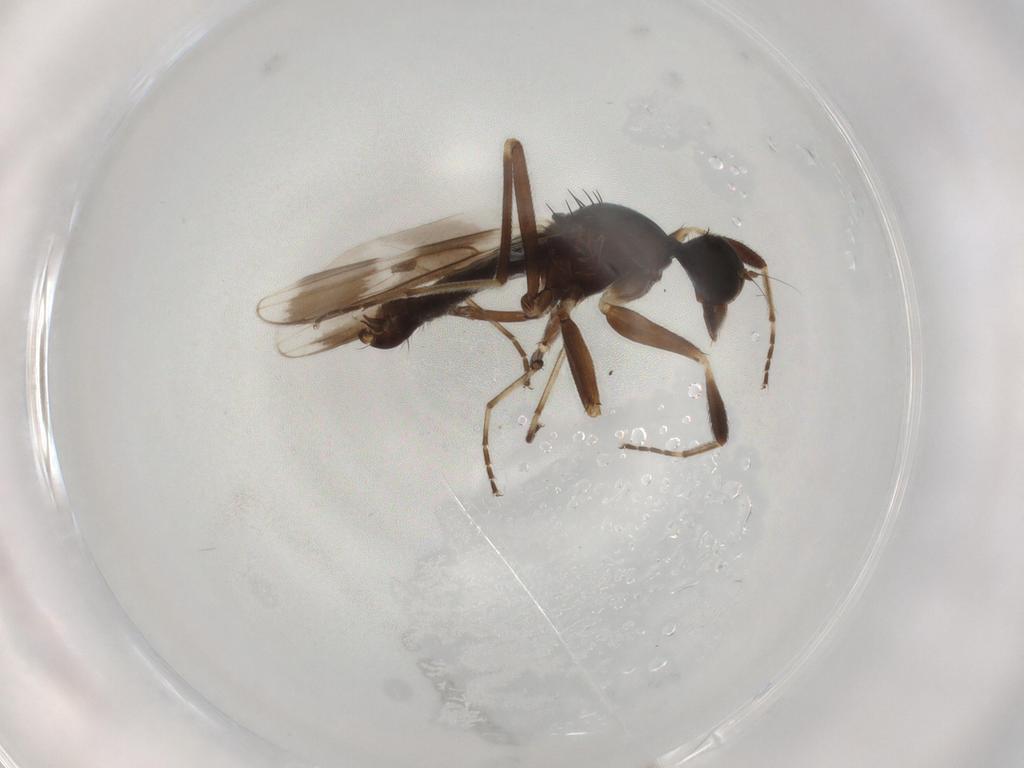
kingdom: Animalia
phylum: Arthropoda
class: Insecta
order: Diptera
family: Hybotidae
